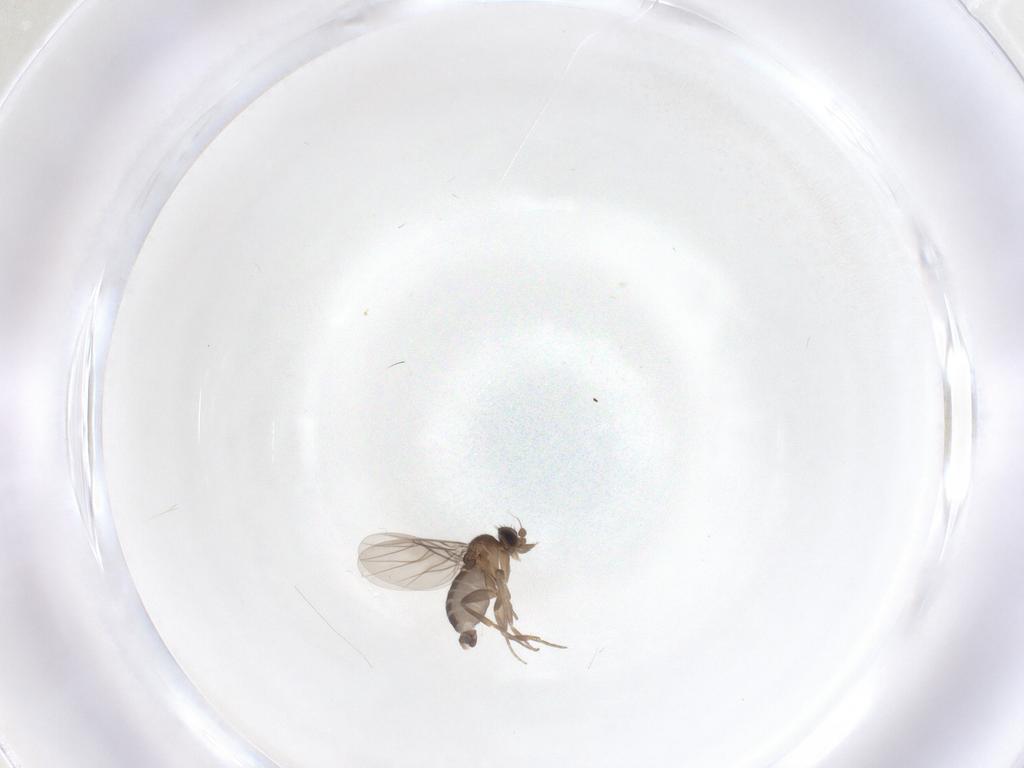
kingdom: Animalia
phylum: Arthropoda
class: Insecta
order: Diptera
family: Phoridae
